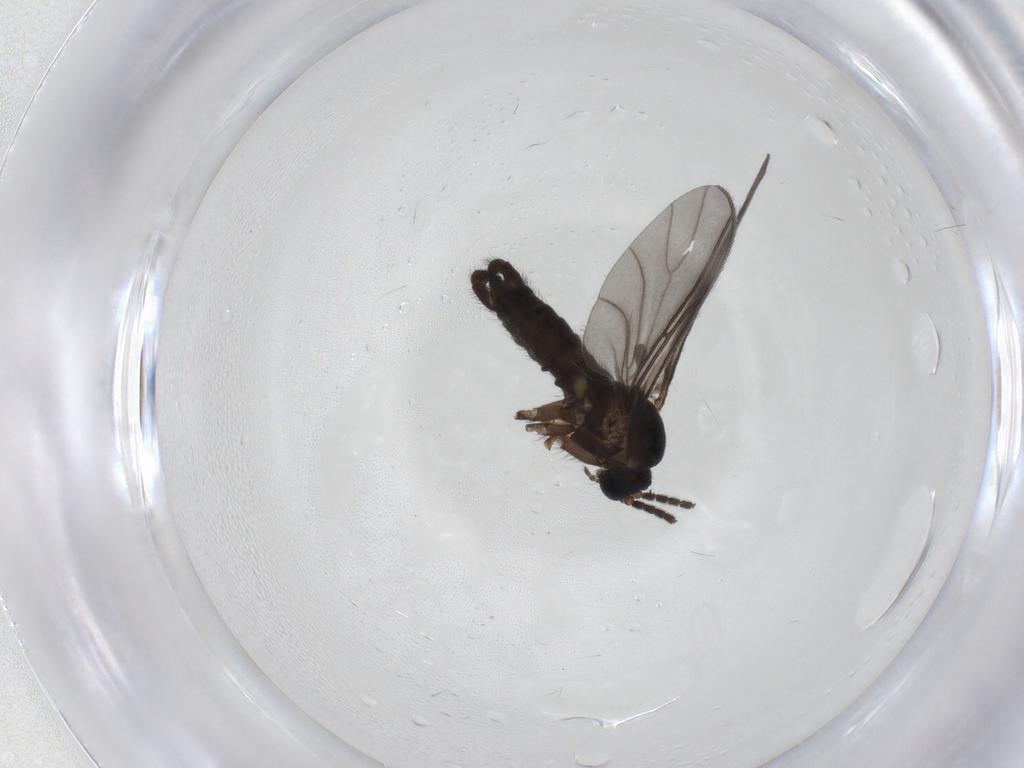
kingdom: Animalia
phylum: Arthropoda
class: Insecta
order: Diptera
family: Sciaridae
